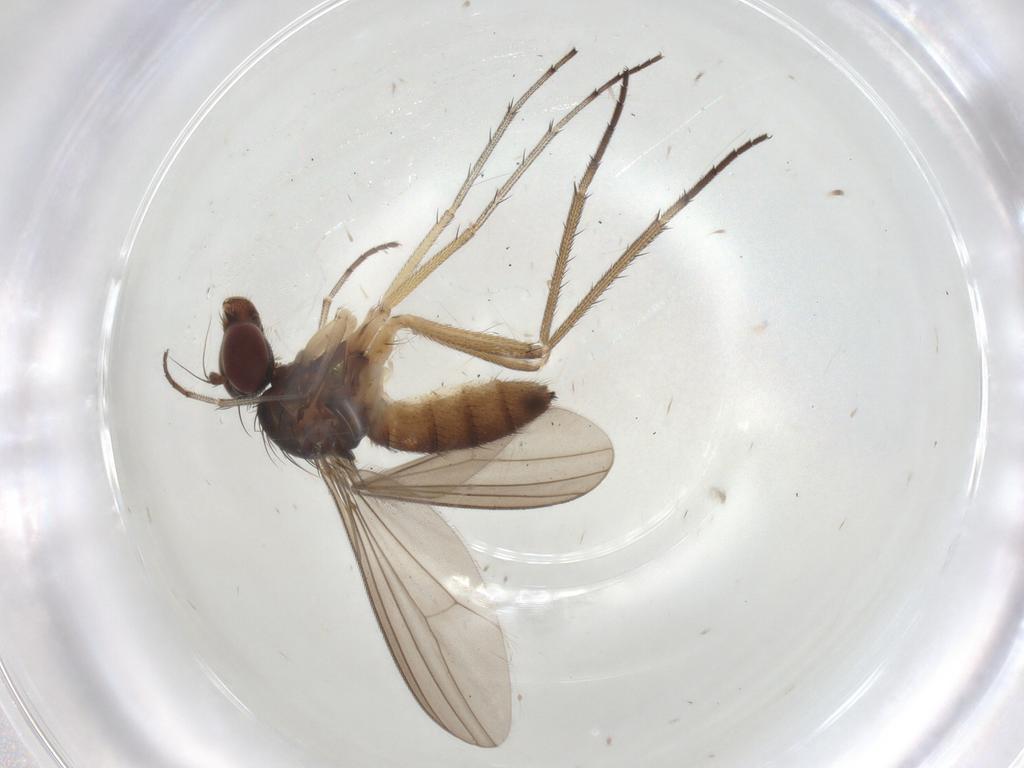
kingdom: Animalia
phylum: Arthropoda
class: Insecta
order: Diptera
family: Dolichopodidae
